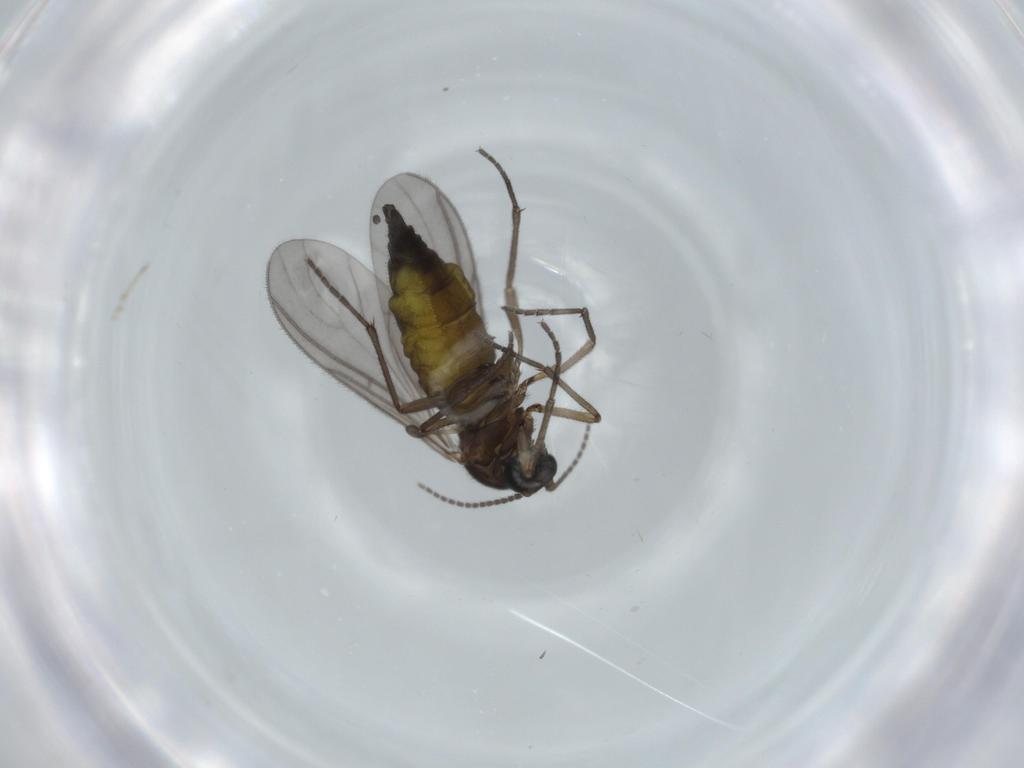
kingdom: Animalia
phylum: Arthropoda
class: Insecta
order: Diptera
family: Sciaridae
